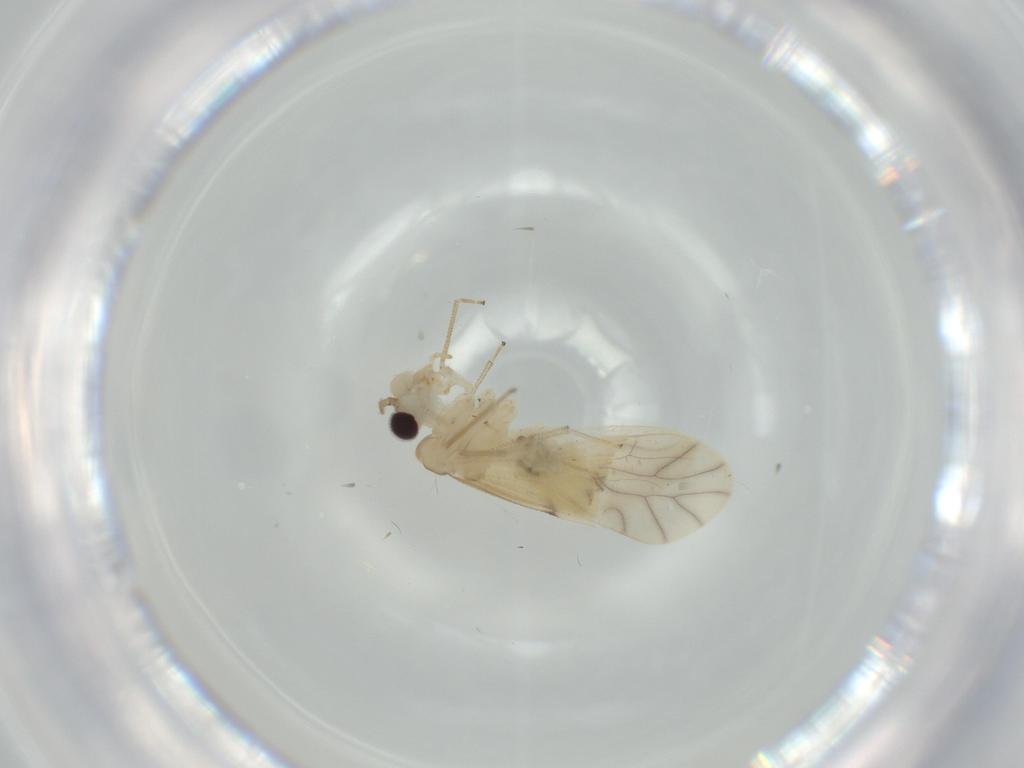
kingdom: Animalia
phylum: Arthropoda
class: Insecta
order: Psocodea
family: Caeciliusidae
